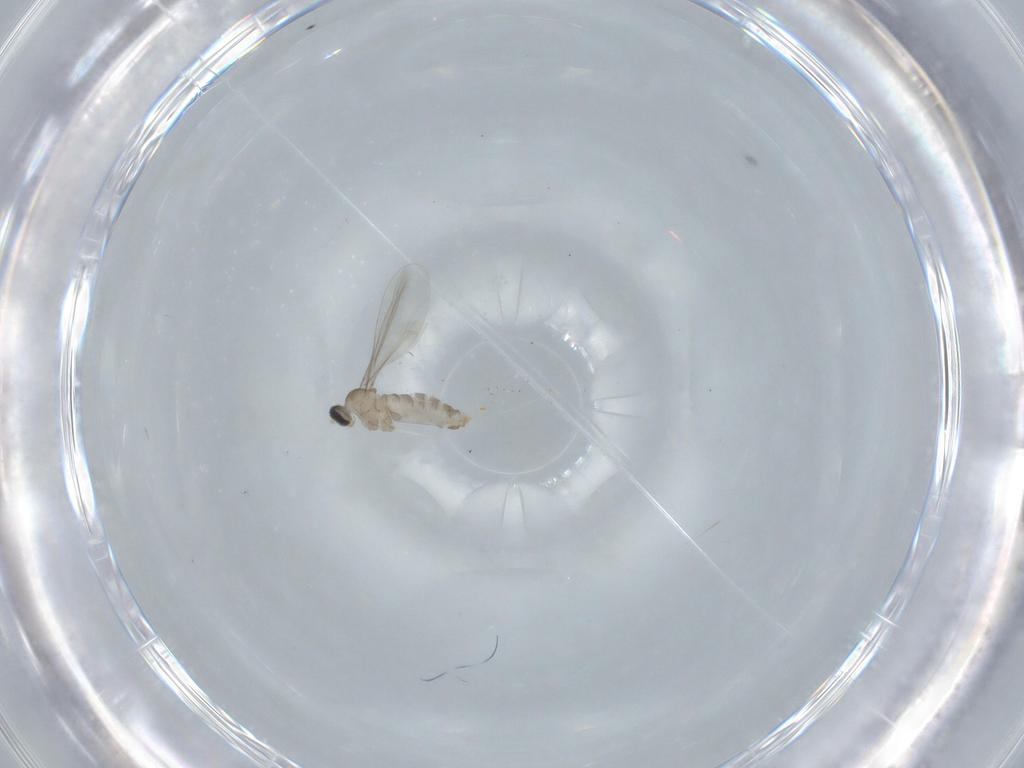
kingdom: Animalia
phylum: Arthropoda
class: Insecta
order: Diptera
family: Cecidomyiidae
